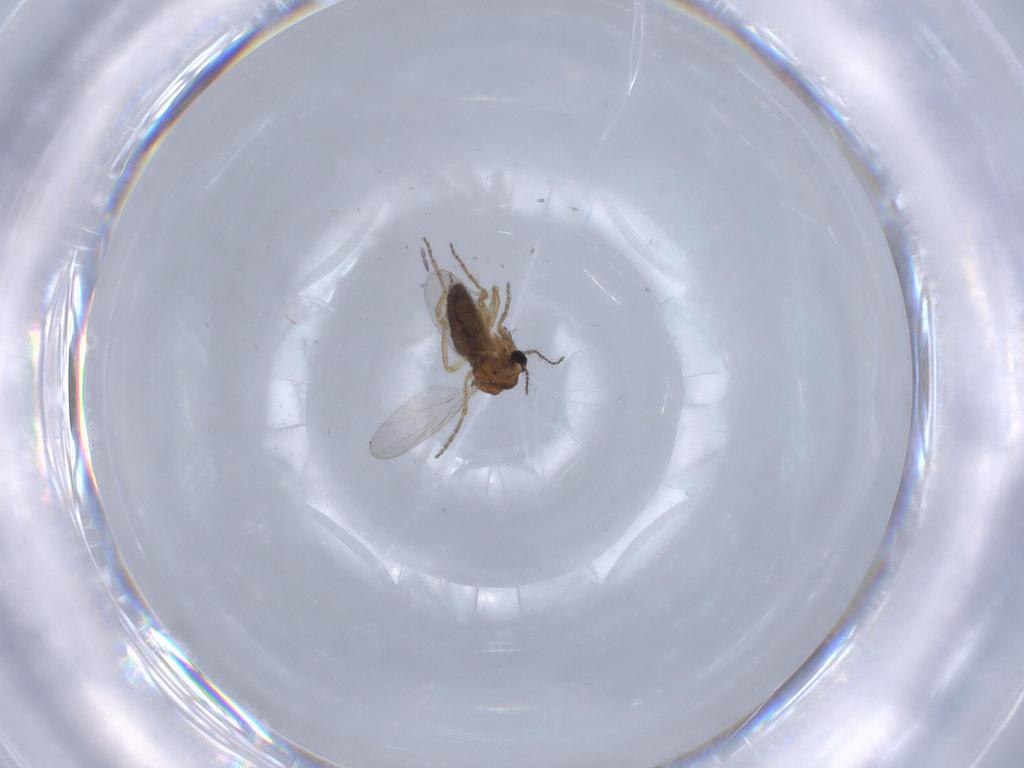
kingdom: Animalia
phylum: Arthropoda
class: Insecta
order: Diptera
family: Ceratopogonidae
